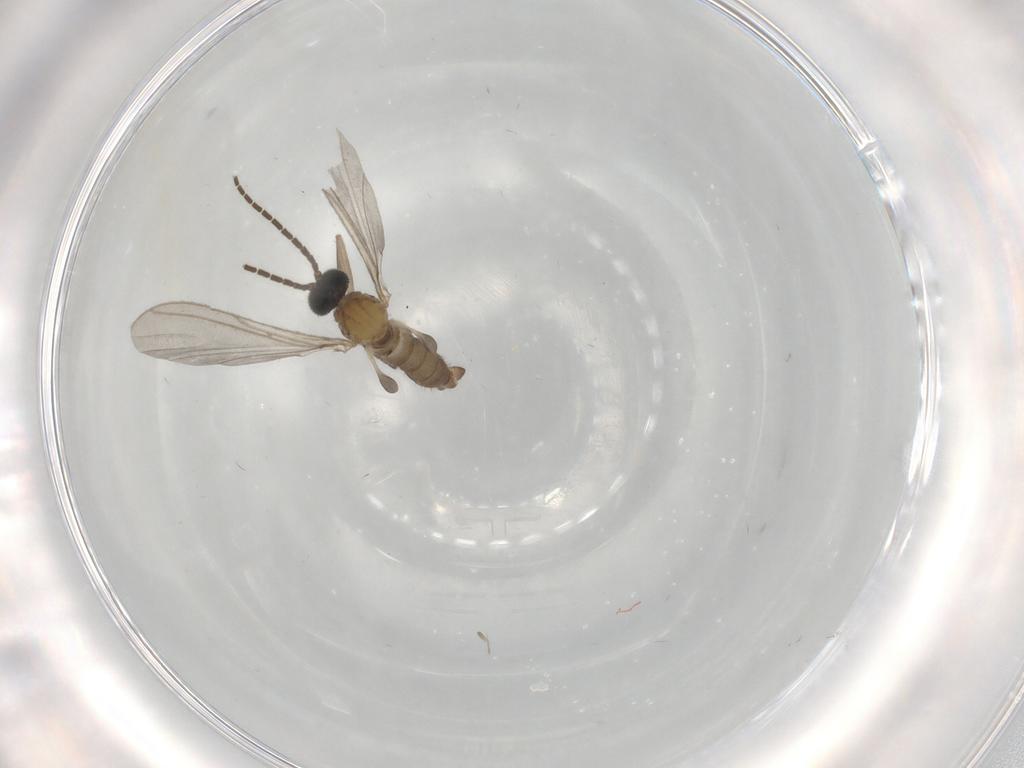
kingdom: Animalia
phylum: Arthropoda
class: Insecta
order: Diptera
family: Sciaridae
